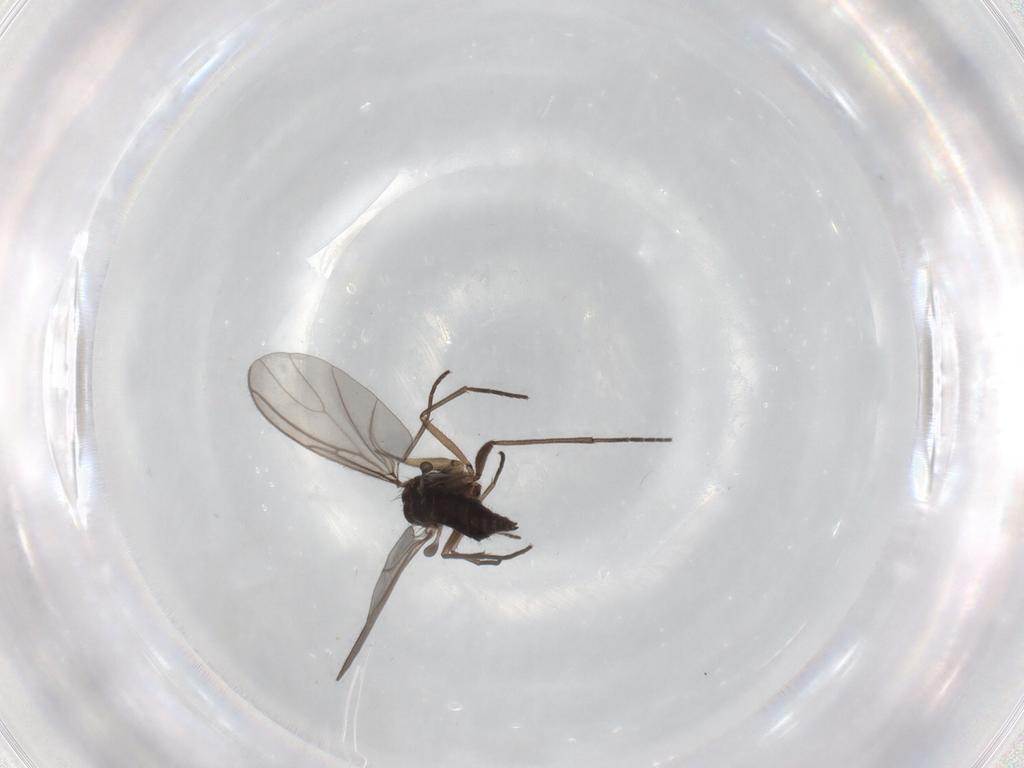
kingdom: Animalia
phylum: Arthropoda
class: Insecta
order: Diptera
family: Sciaridae
